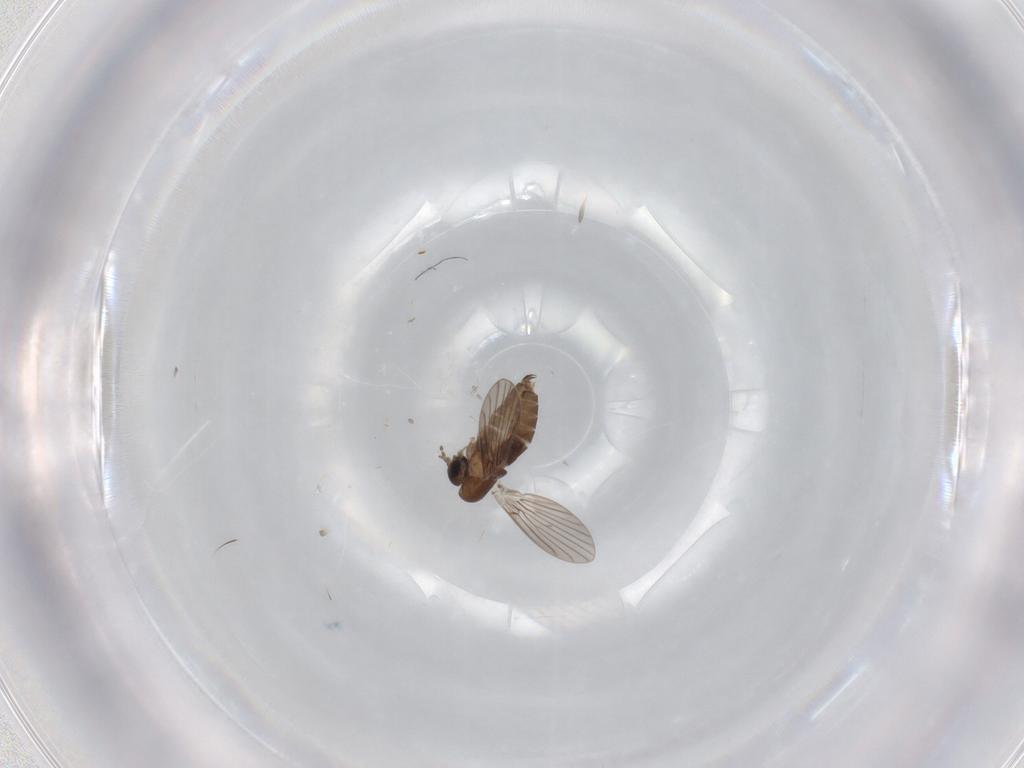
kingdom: Animalia
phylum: Arthropoda
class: Insecta
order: Diptera
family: Stratiomyidae
